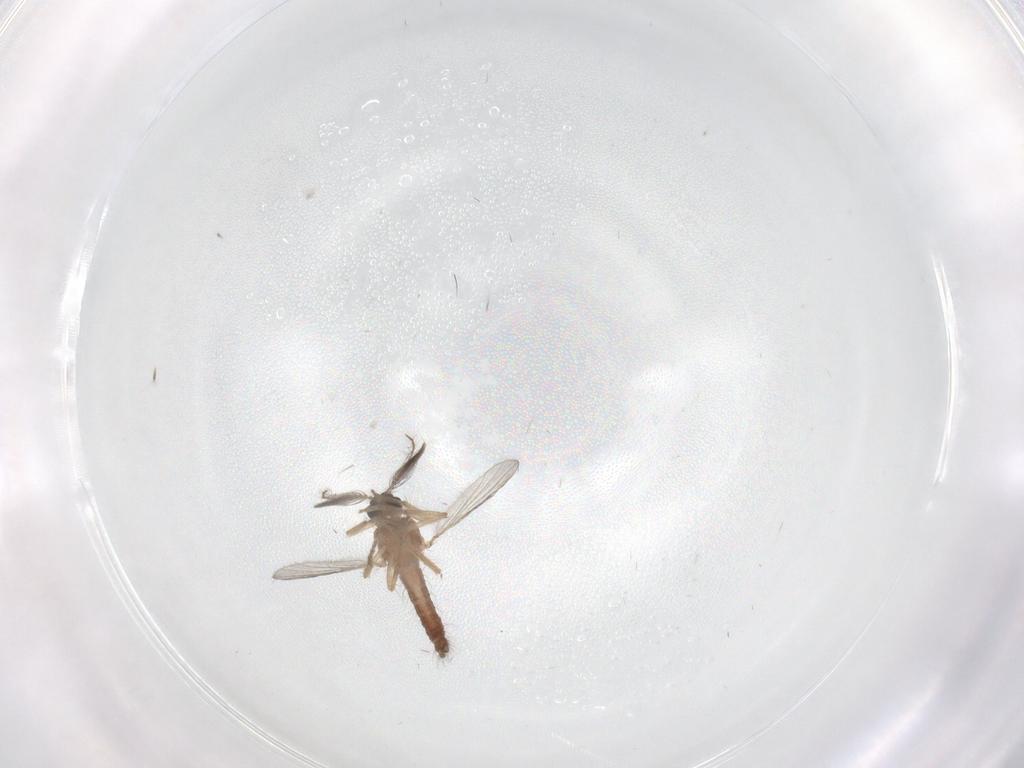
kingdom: Animalia
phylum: Arthropoda
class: Insecta
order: Diptera
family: Ceratopogonidae
